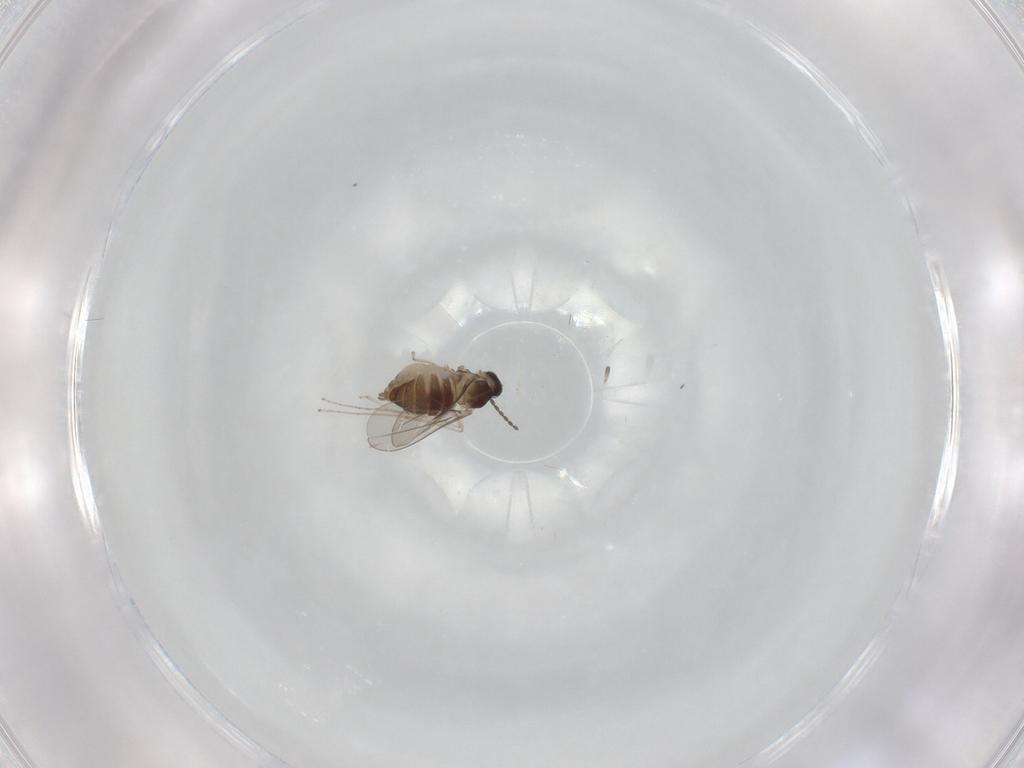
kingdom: Animalia
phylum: Arthropoda
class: Insecta
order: Diptera
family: Cecidomyiidae
